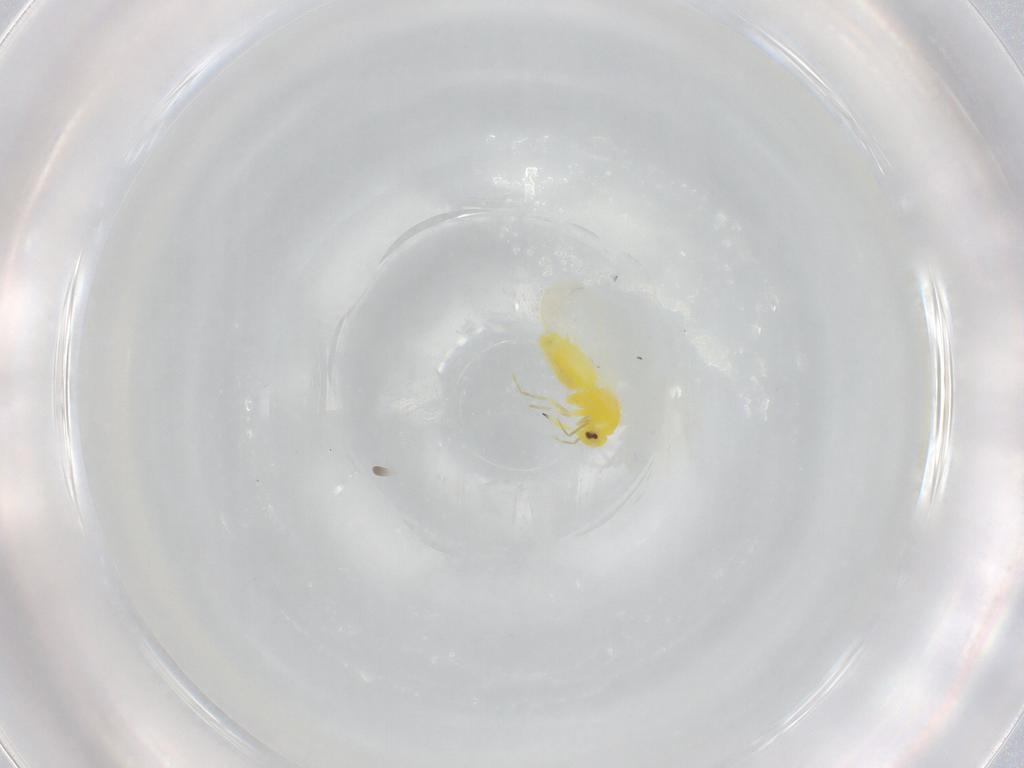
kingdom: Animalia
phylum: Arthropoda
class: Insecta
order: Hemiptera
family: Aleyrodidae
